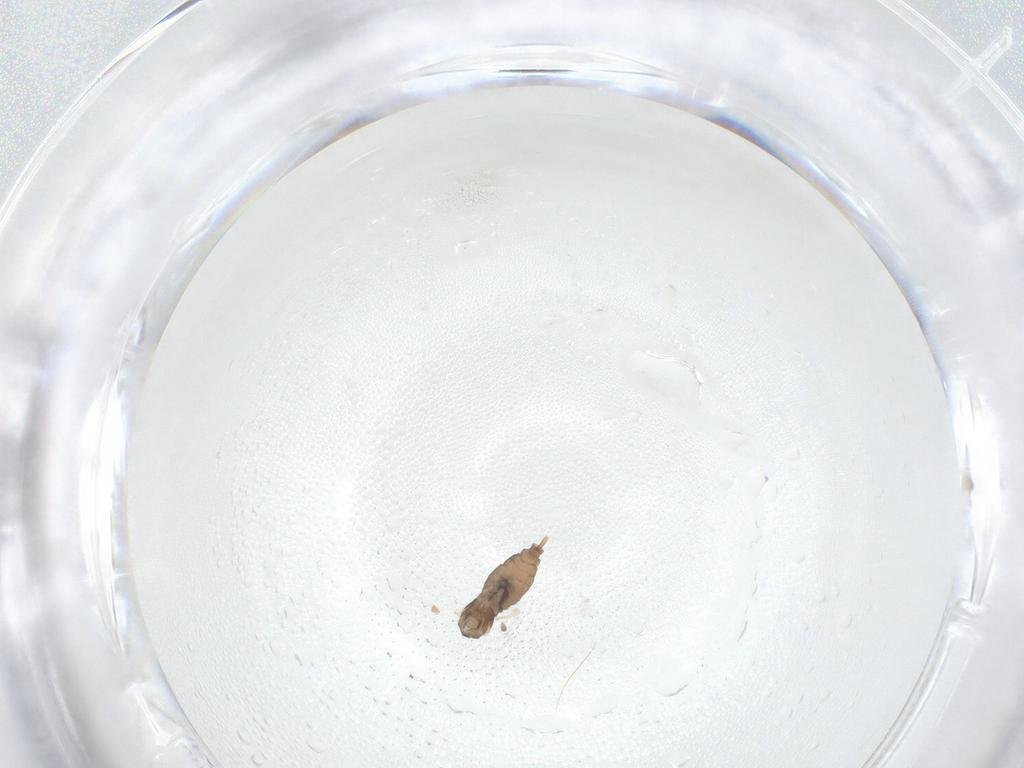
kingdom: Animalia
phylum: Arthropoda
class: Insecta
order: Diptera
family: Cecidomyiidae
